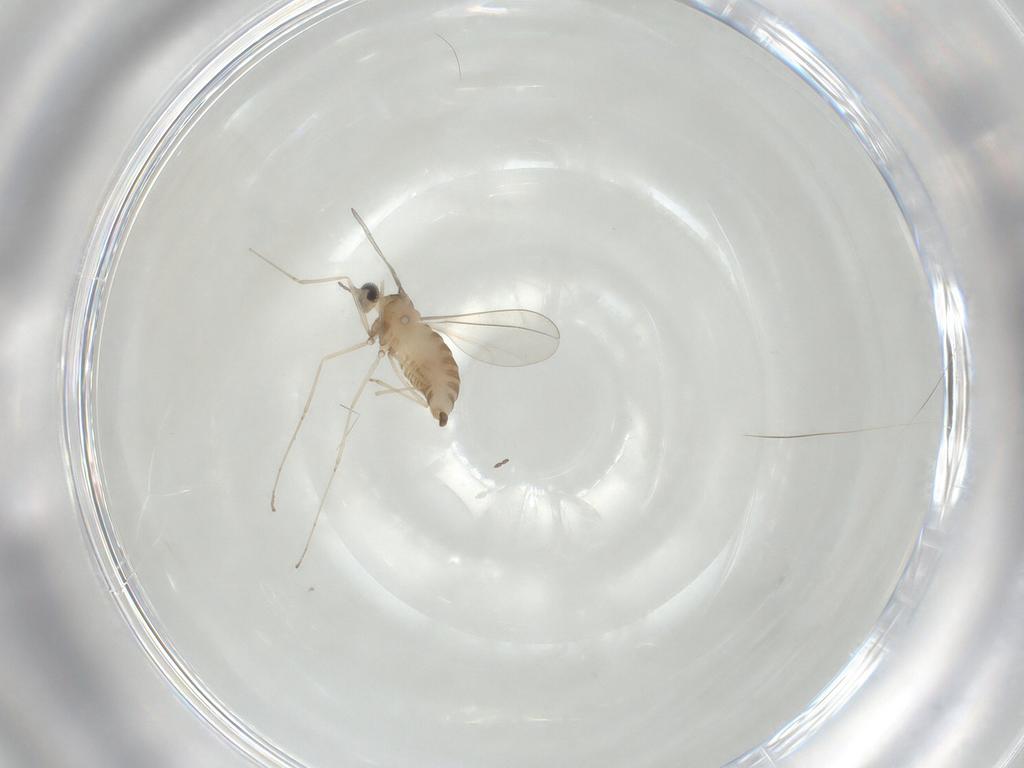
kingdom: Animalia
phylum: Arthropoda
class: Insecta
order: Diptera
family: Cecidomyiidae
